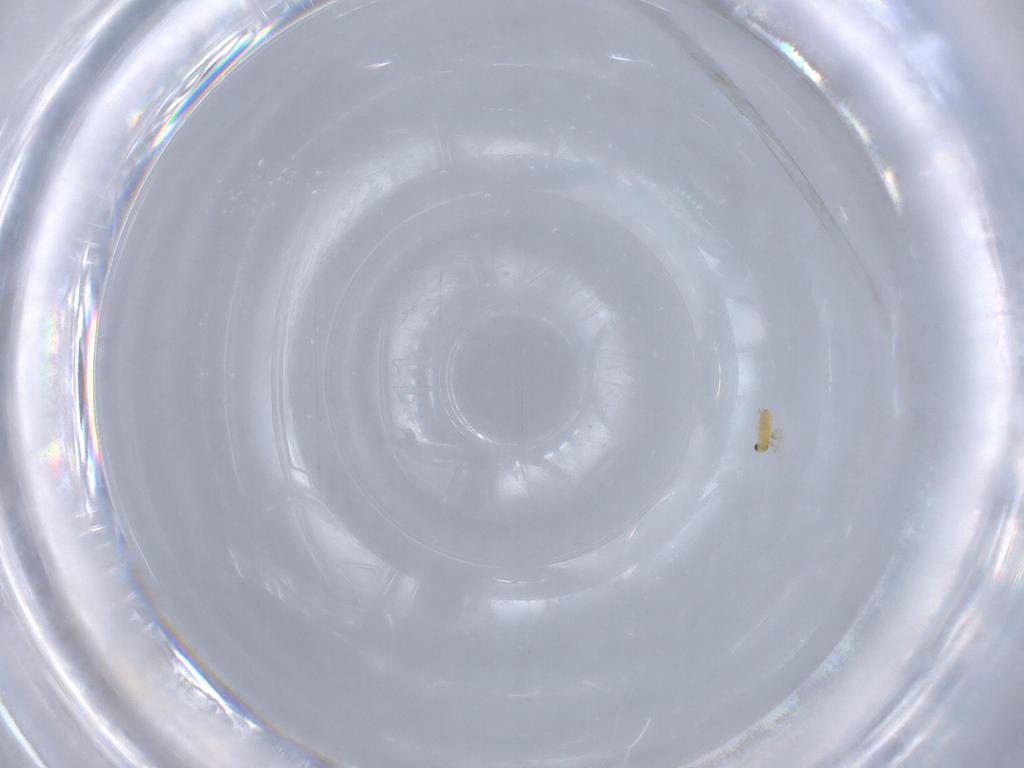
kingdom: Animalia
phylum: Arthropoda
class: Insecta
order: Hymenoptera
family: Trichogrammatidae
